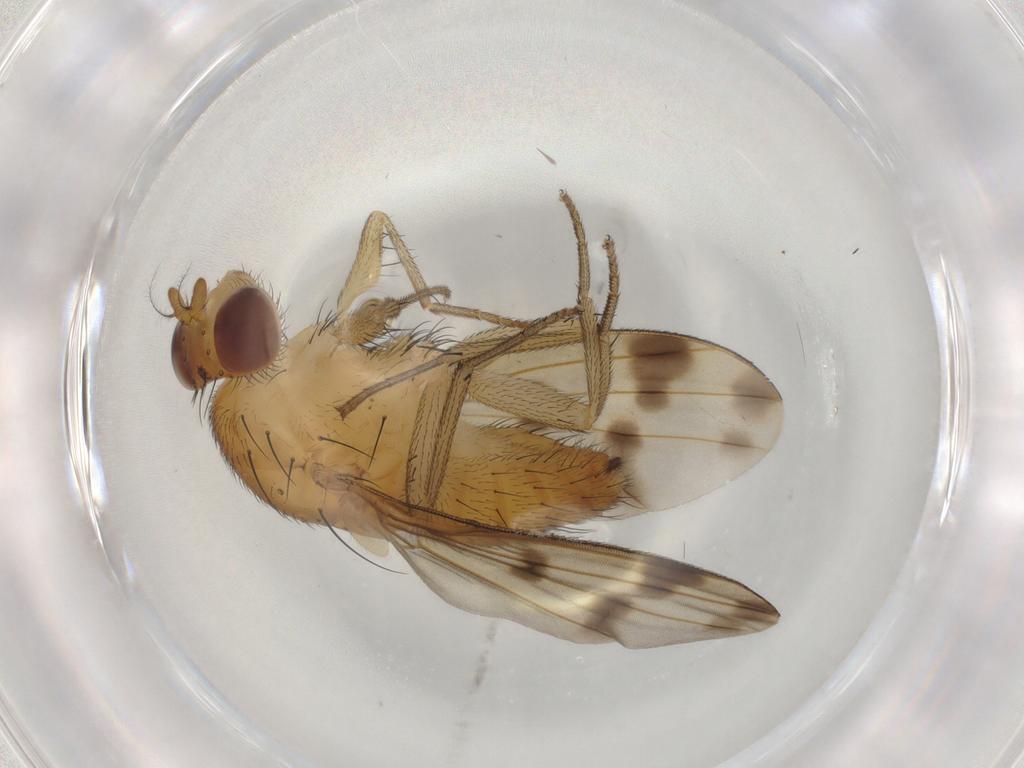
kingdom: Animalia
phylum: Arthropoda
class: Insecta
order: Diptera
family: Cecidomyiidae
